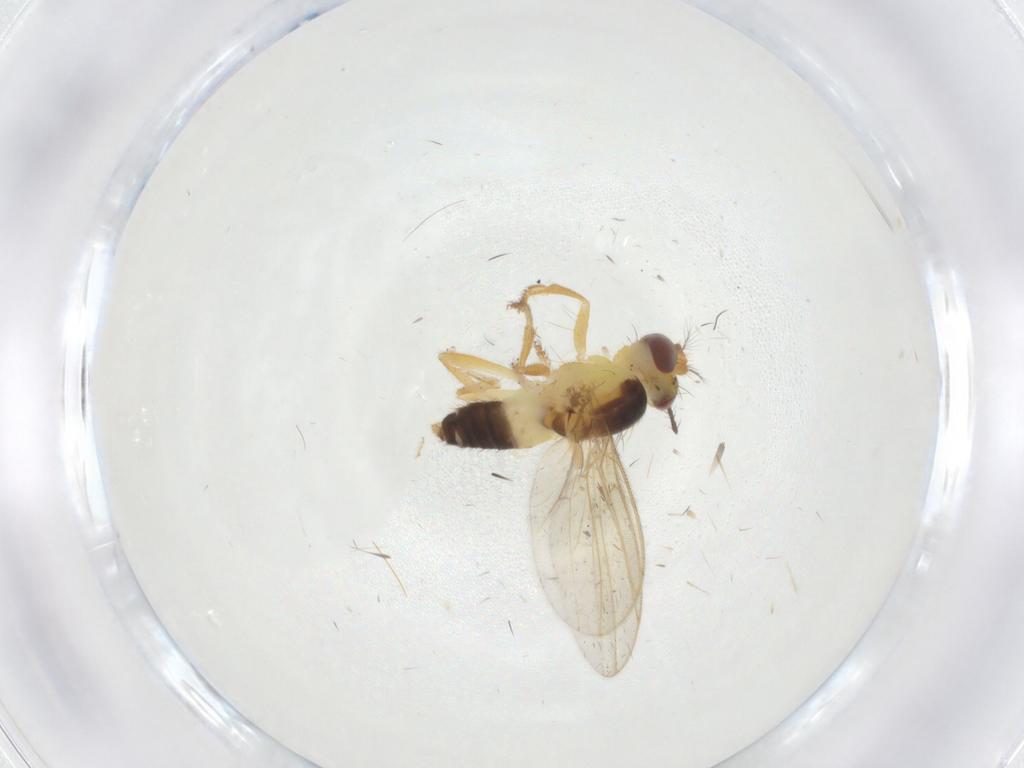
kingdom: Animalia
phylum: Arthropoda
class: Insecta
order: Diptera
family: Periscelididae
